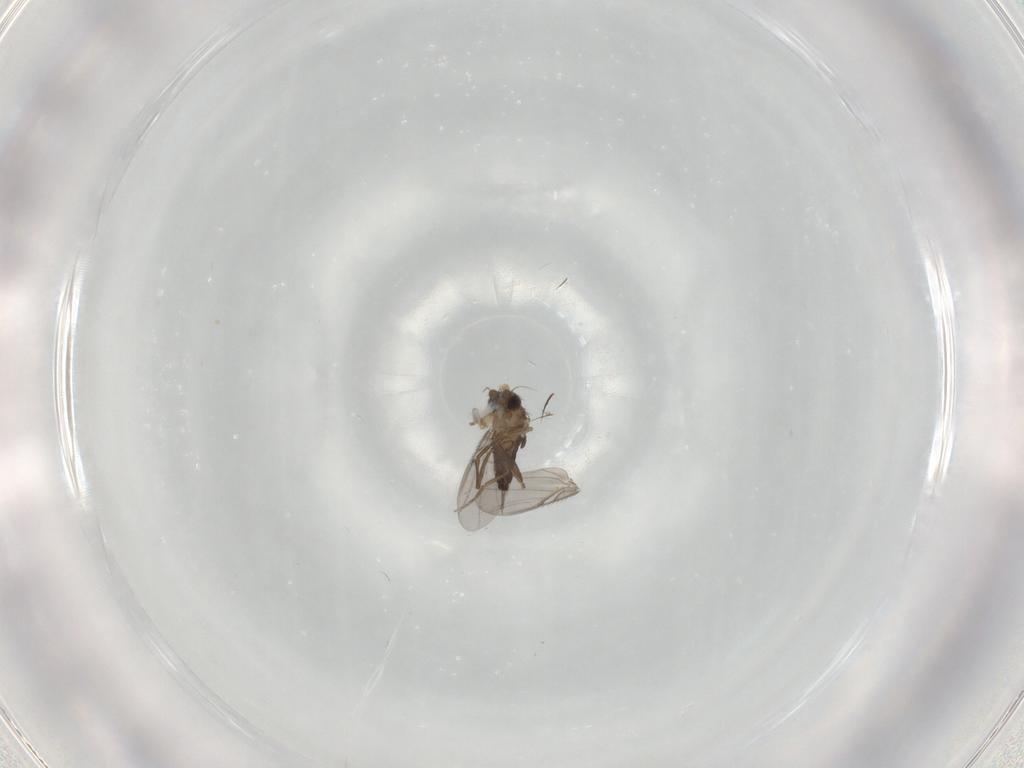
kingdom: Animalia
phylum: Arthropoda
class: Insecta
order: Diptera
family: Phoridae
